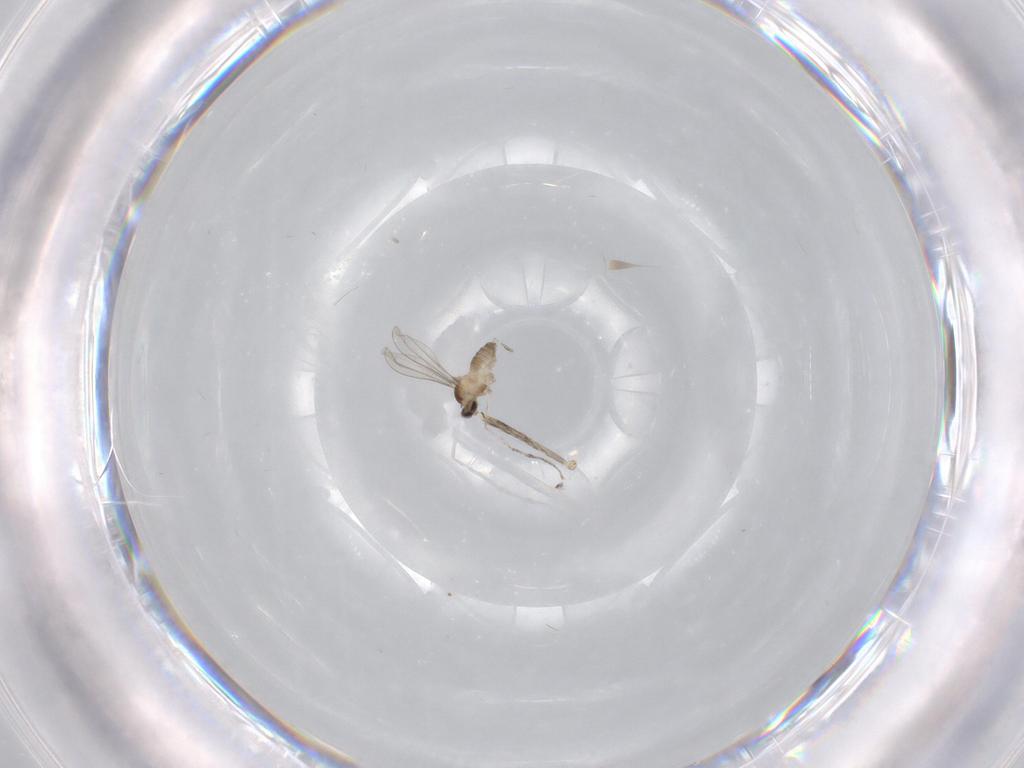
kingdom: Animalia
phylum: Arthropoda
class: Insecta
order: Diptera
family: Cecidomyiidae
